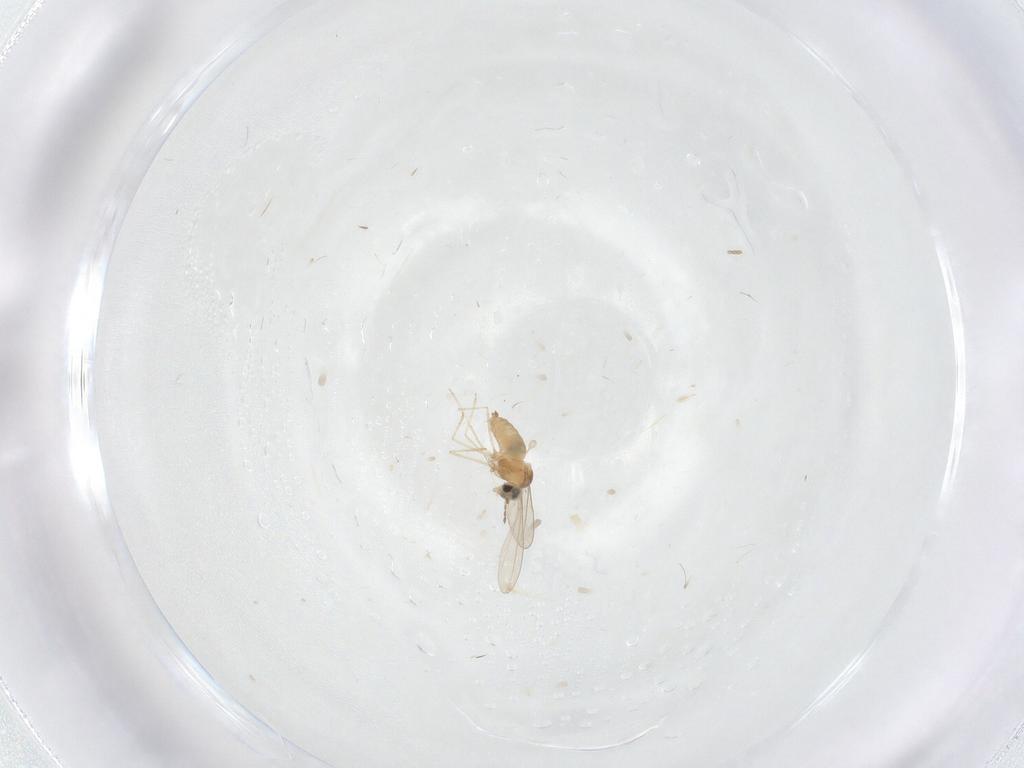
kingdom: Animalia
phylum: Arthropoda
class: Insecta
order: Diptera
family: Cecidomyiidae
